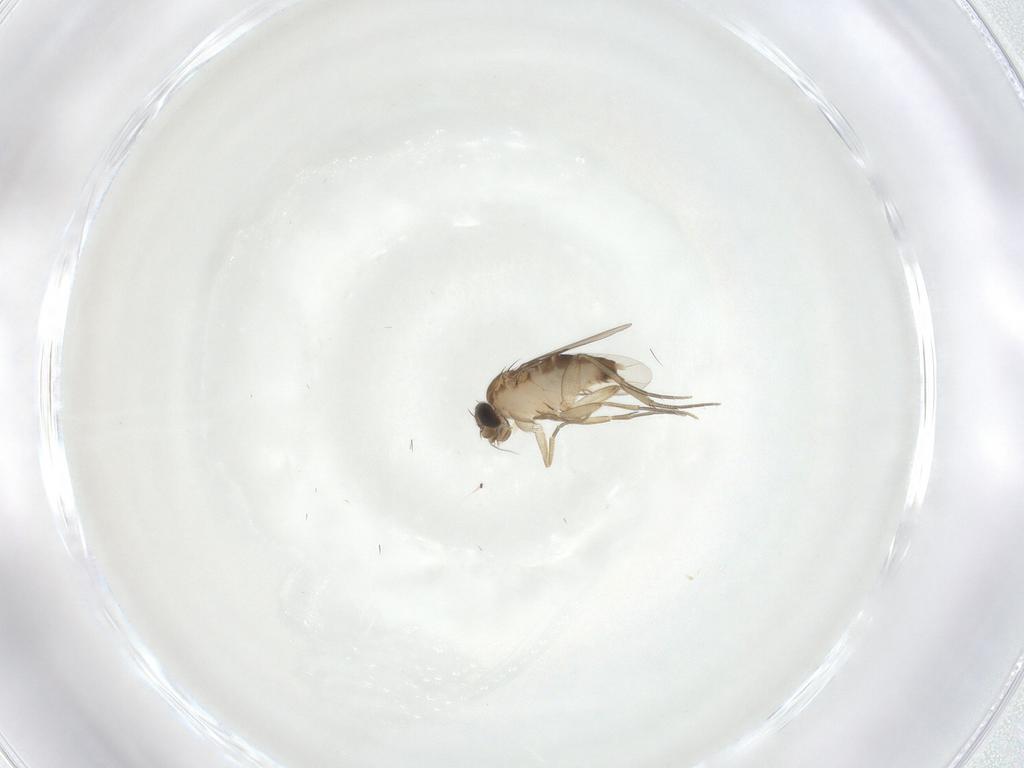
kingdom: Animalia
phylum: Arthropoda
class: Insecta
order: Diptera
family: Phoridae
